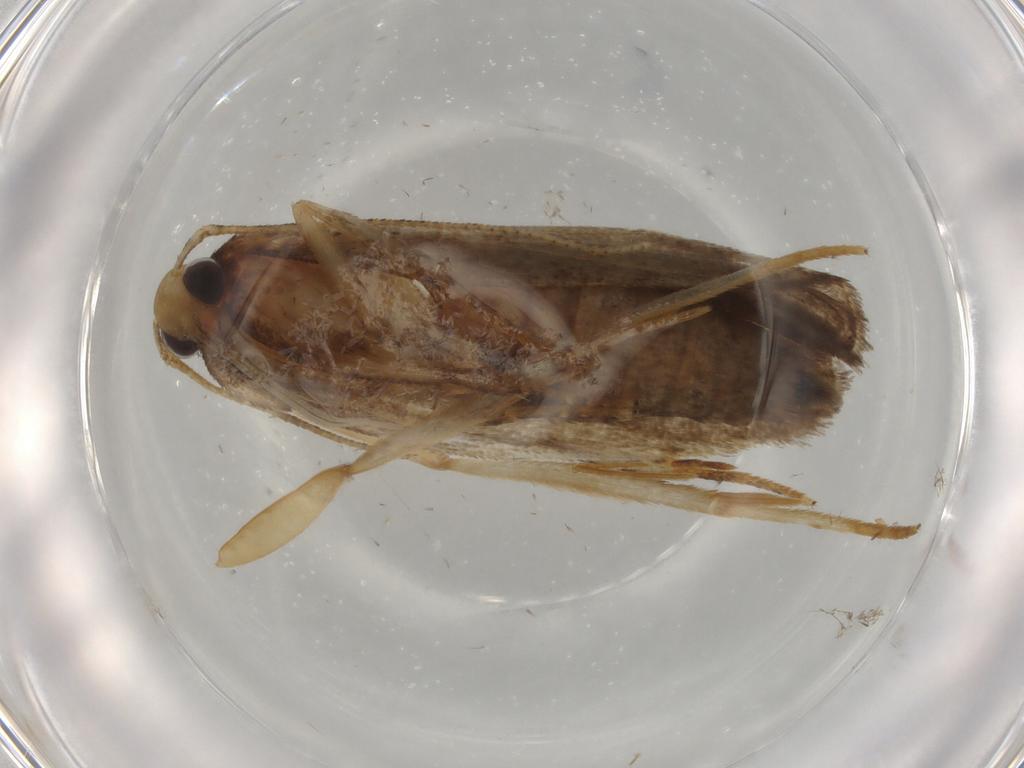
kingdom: Animalia
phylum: Arthropoda
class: Insecta
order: Lepidoptera
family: Autostichidae
